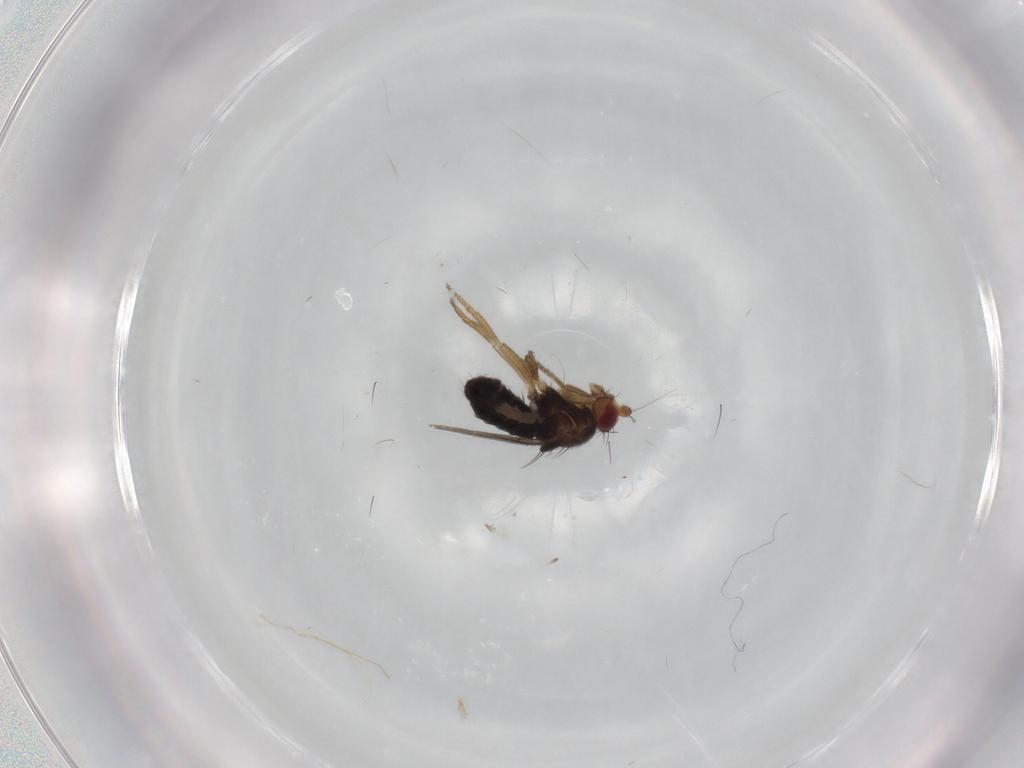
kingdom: Animalia
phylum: Arthropoda
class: Insecta
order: Diptera
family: Sphaeroceridae
